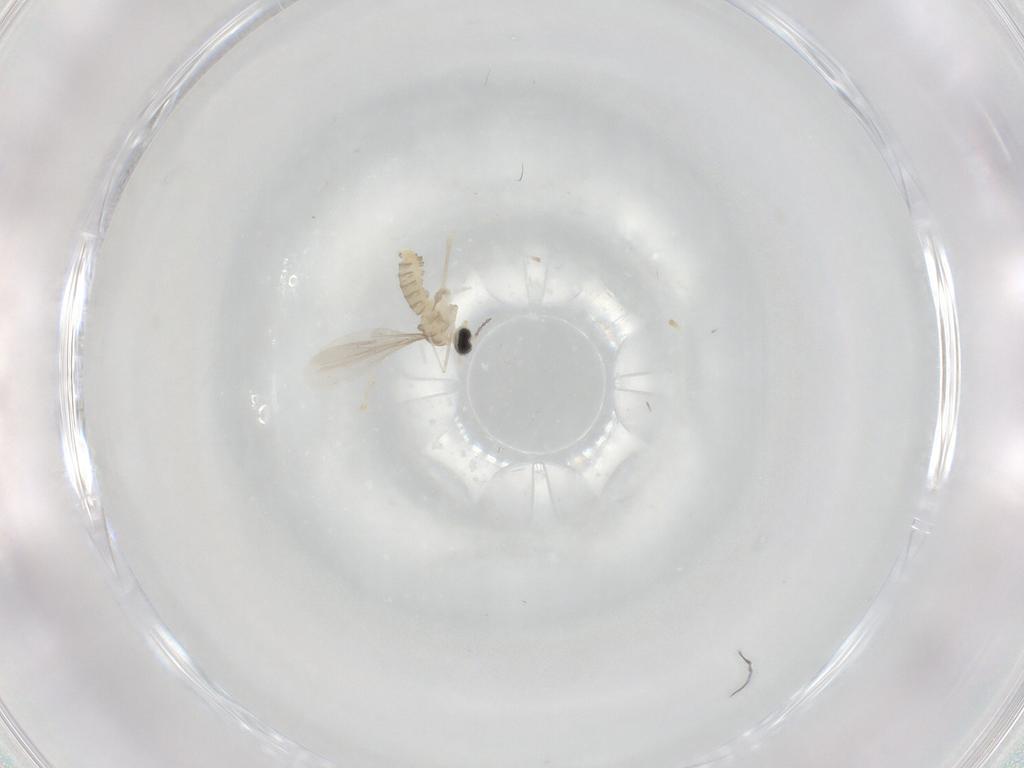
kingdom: Animalia
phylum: Arthropoda
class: Insecta
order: Diptera
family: Cecidomyiidae
